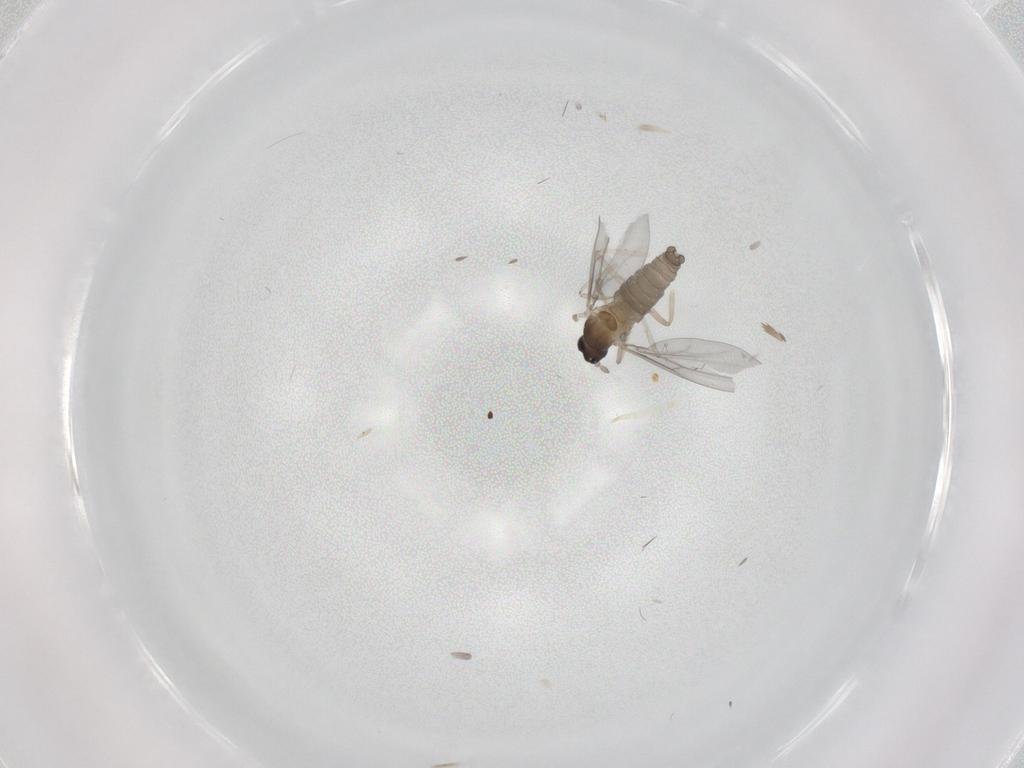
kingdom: Animalia
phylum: Arthropoda
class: Insecta
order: Diptera
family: Cecidomyiidae
